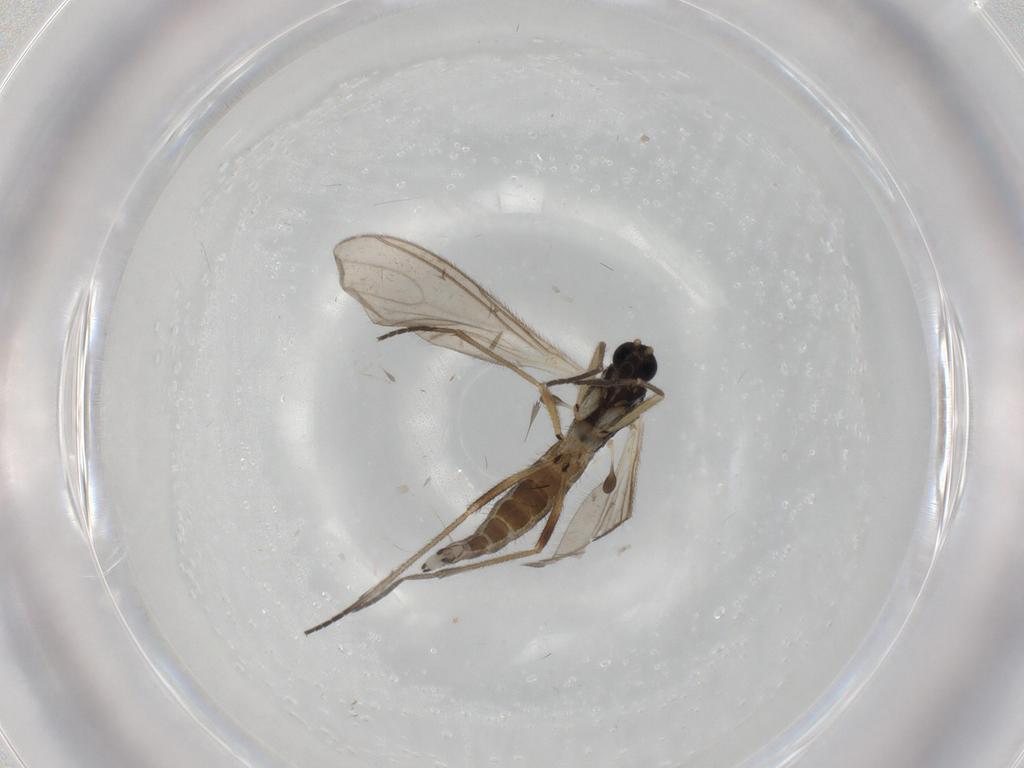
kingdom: Animalia
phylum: Arthropoda
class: Insecta
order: Diptera
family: Sciaridae
